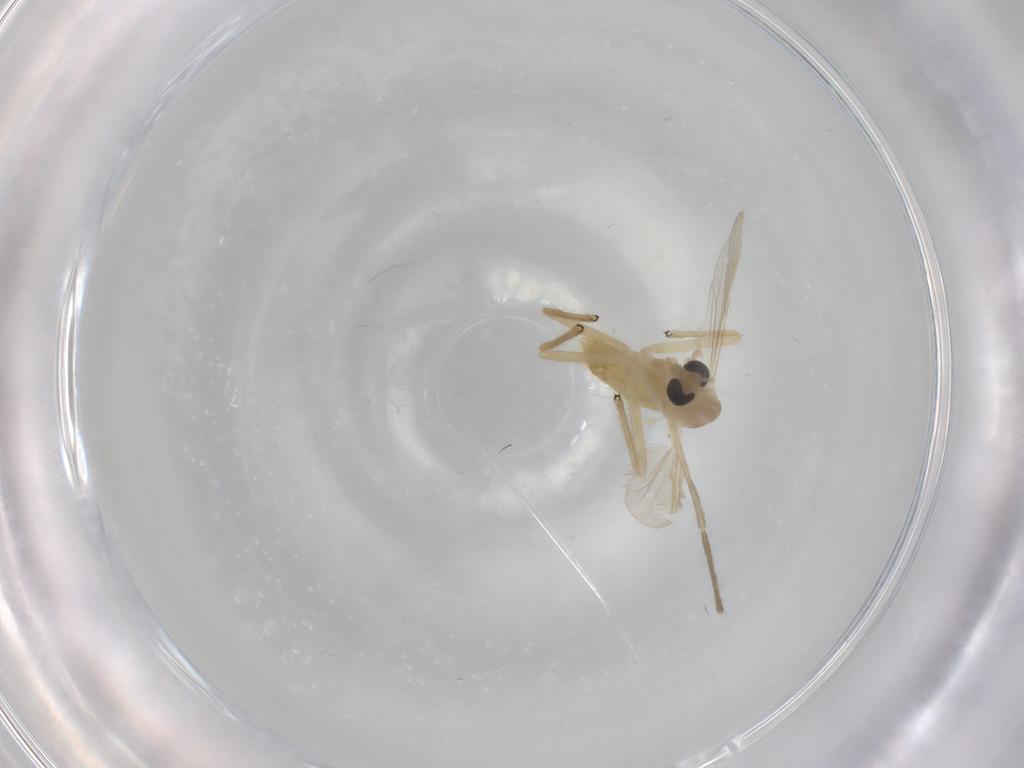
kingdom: Animalia
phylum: Arthropoda
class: Insecta
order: Diptera
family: Chironomidae
